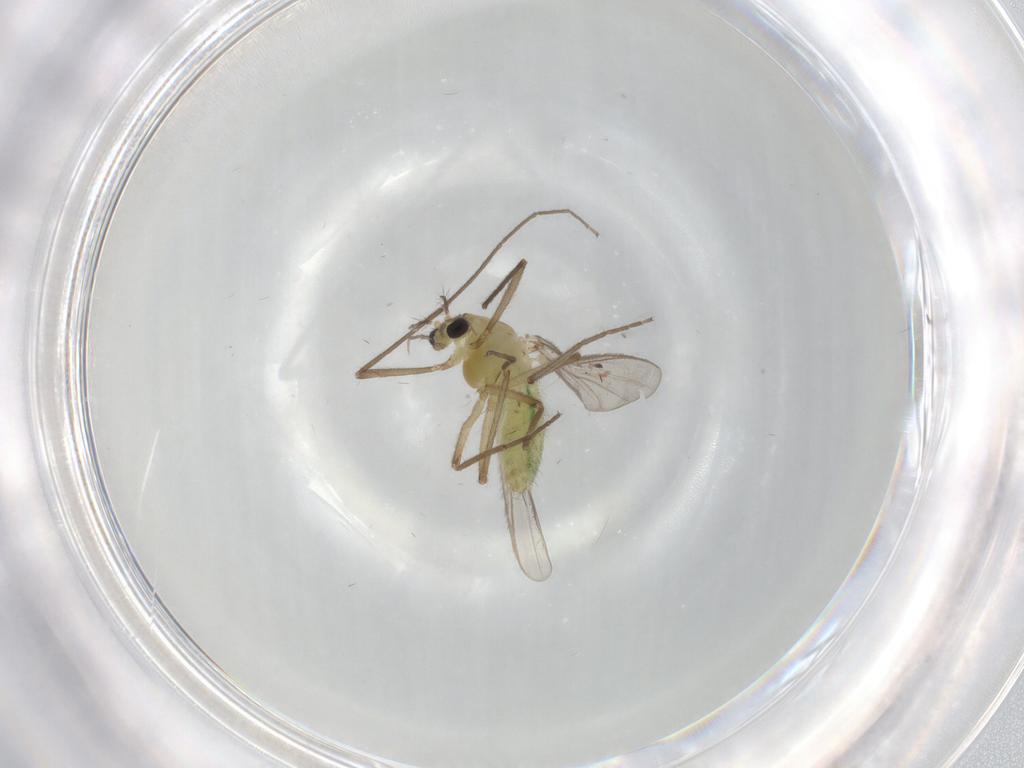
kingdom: Animalia
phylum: Arthropoda
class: Insecta
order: Diptera
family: Chironomidae
